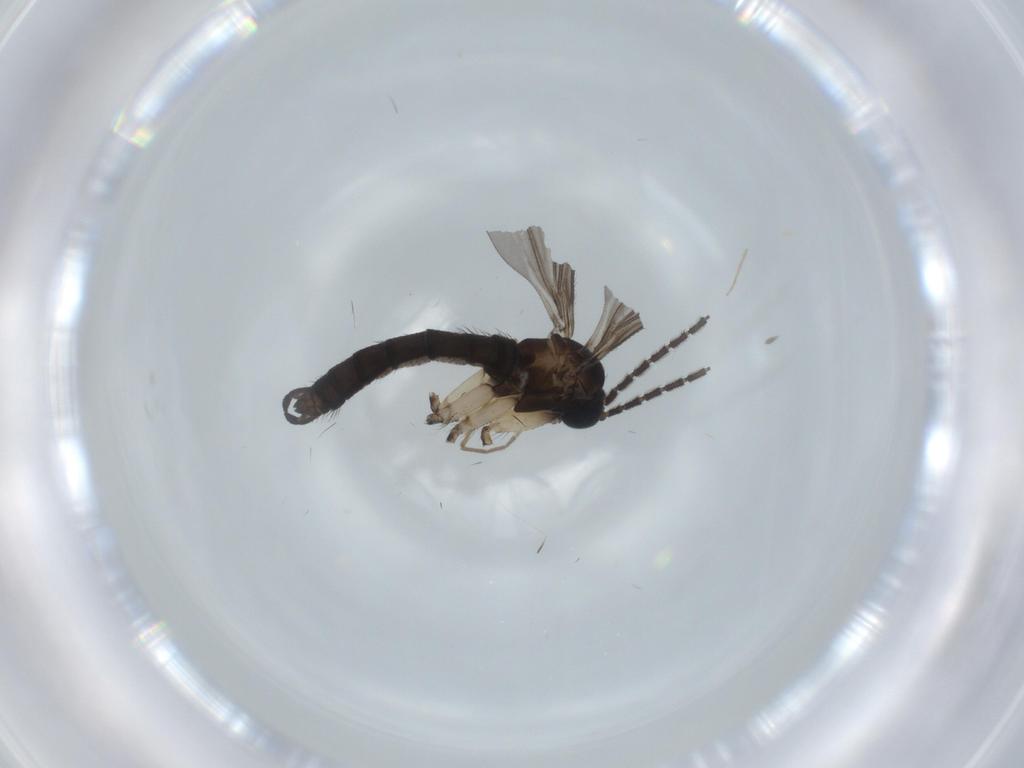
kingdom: Animalia
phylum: Arthropoda
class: Insecta
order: Diptera
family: Sciaridae
